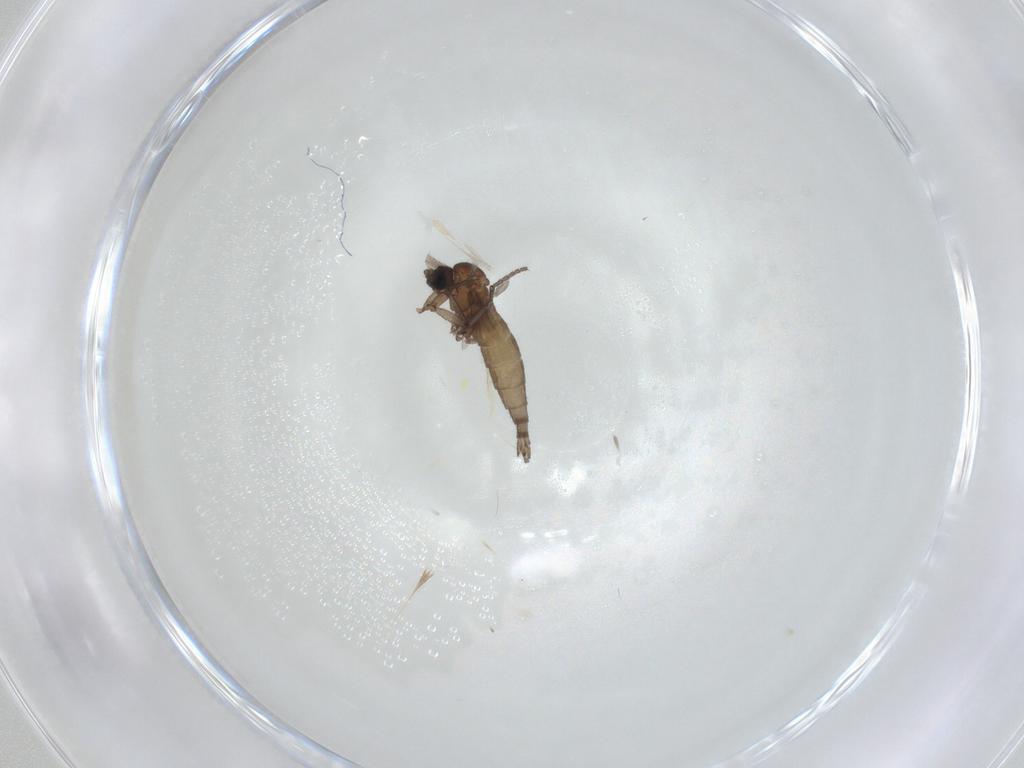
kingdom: Animalia
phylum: Arthropoda
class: Insecta
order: Diptera
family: Sciaridae
